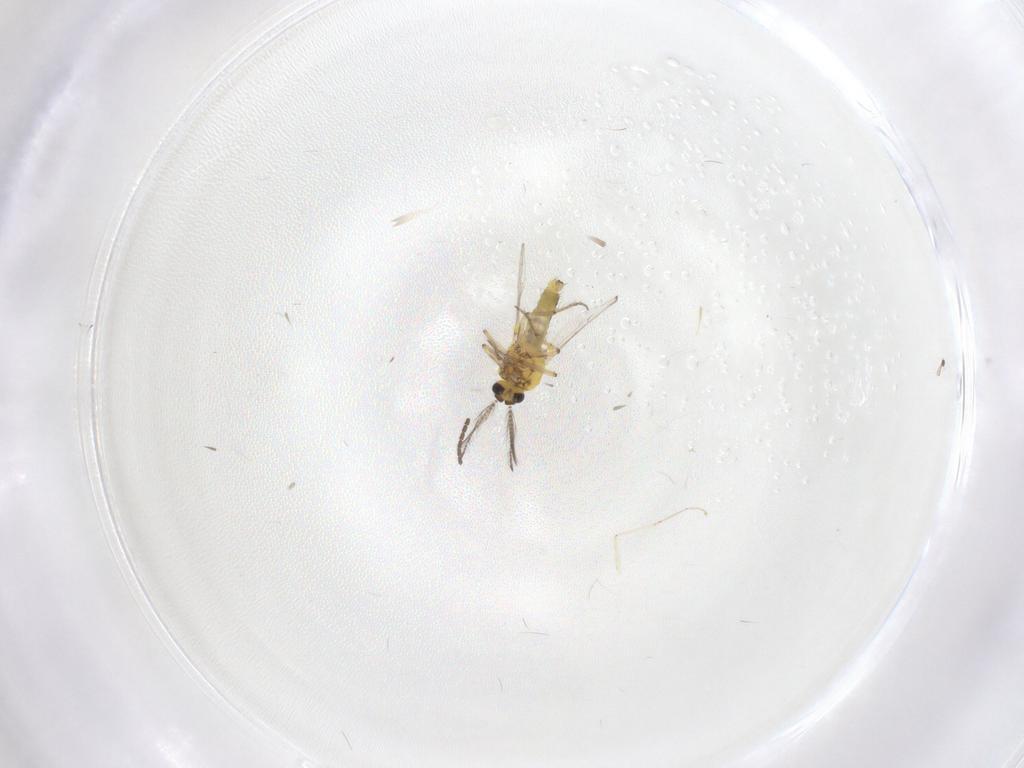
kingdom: Animalia
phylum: Arthropoda
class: Insecta
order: Diptera
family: Ceratopogonidae
